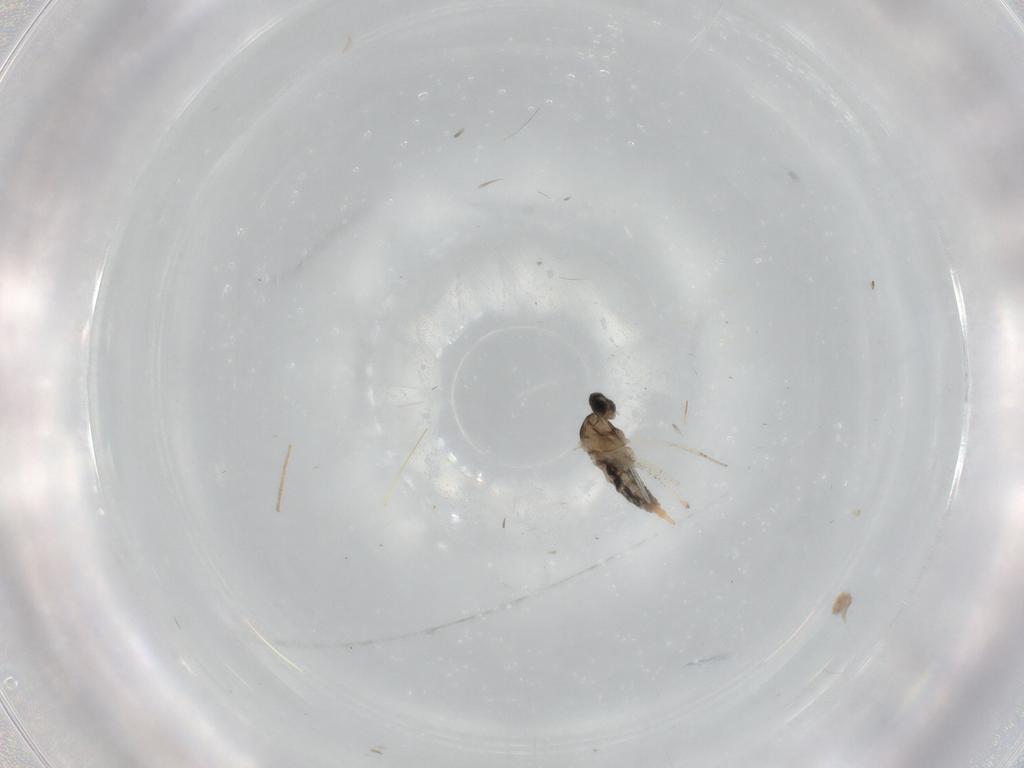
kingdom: Animalia
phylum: Arthropoda
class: Insecta
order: Diptera
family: Cecidomyiidae
